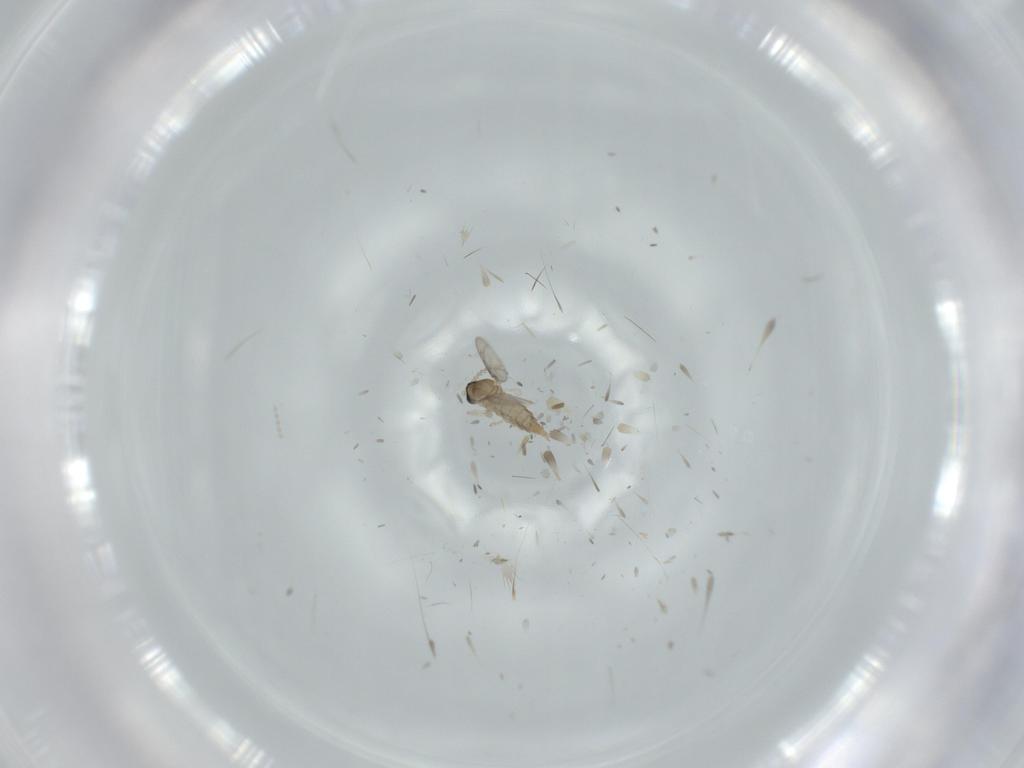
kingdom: Animalia
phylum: Arthropoda
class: Insecta
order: Diptera
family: Cecidomyiidae
